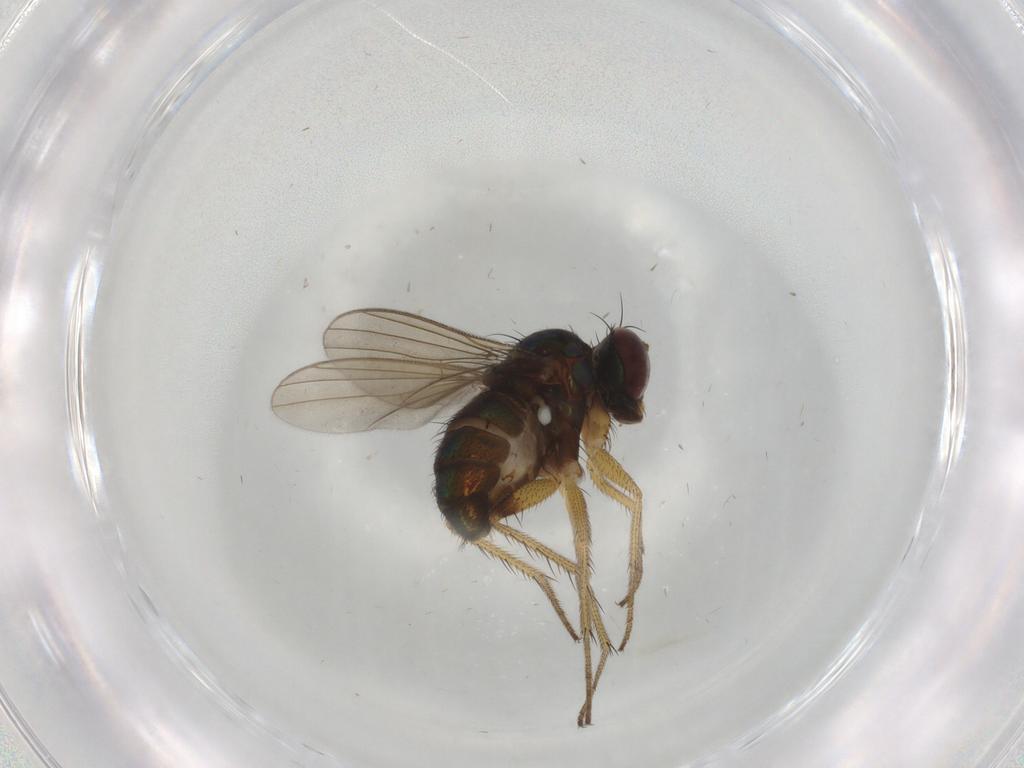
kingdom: Animalia
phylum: Arthropoda
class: Insecta
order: Diptera
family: Dolichopodidae
